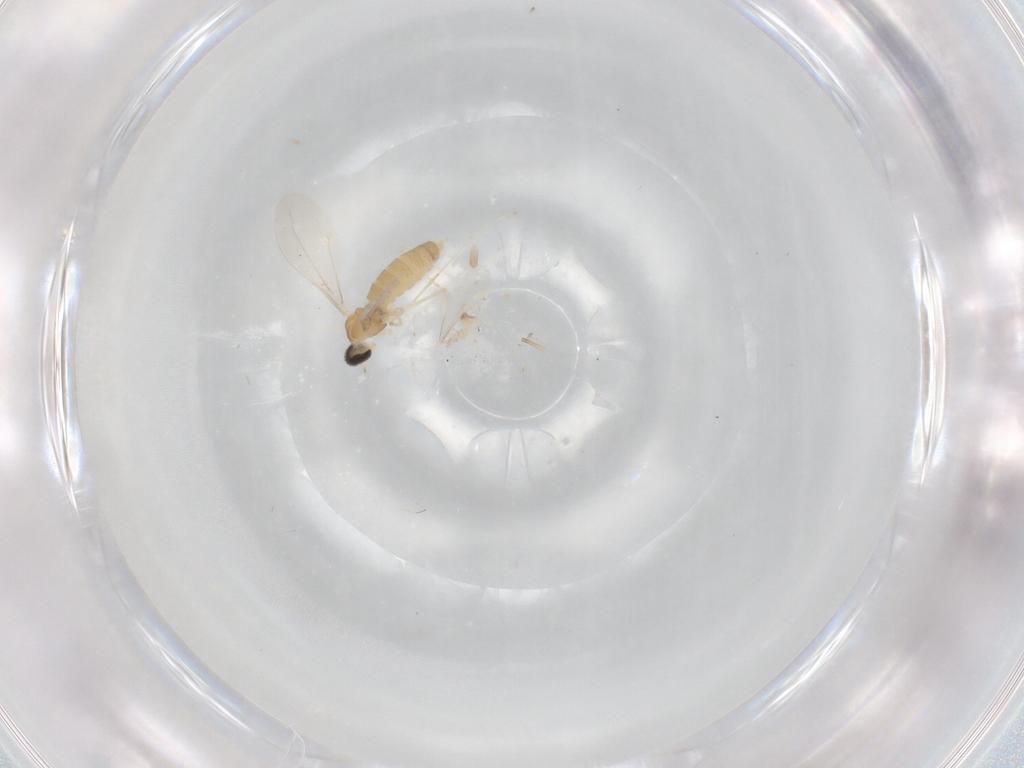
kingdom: Animalia
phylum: Arthropoda
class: Insecta
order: Diptera
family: Cecidomyiidae
